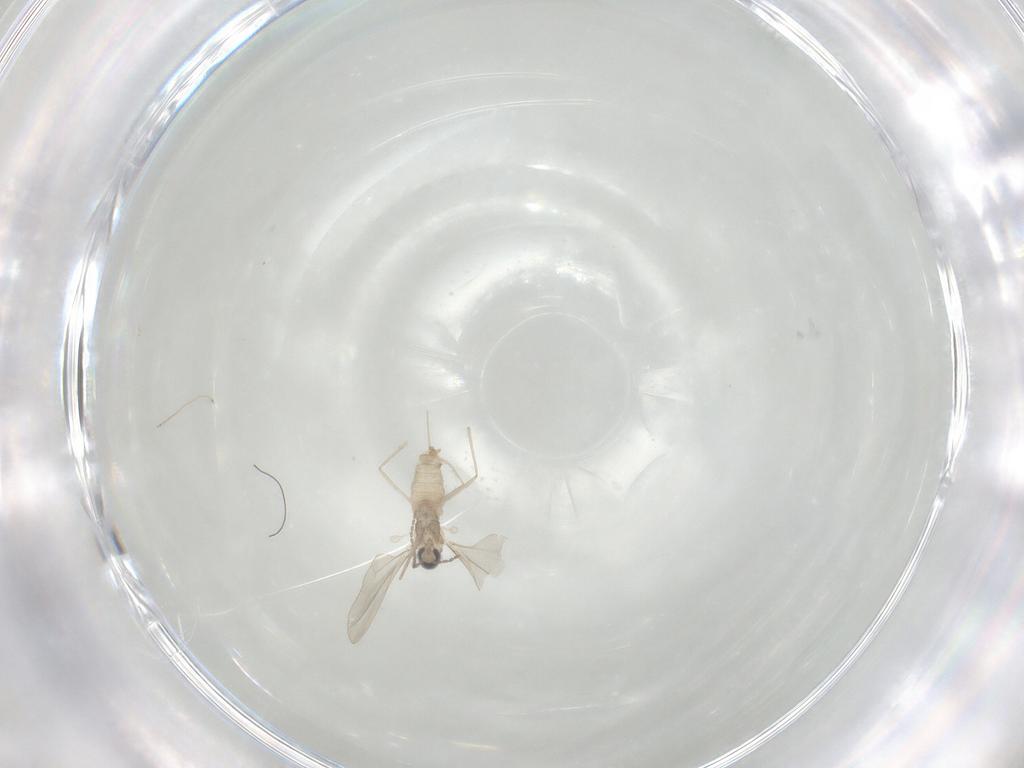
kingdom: Animalia
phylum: Arthropoda
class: Insecta
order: Diptera
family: Cecidomyiidae
